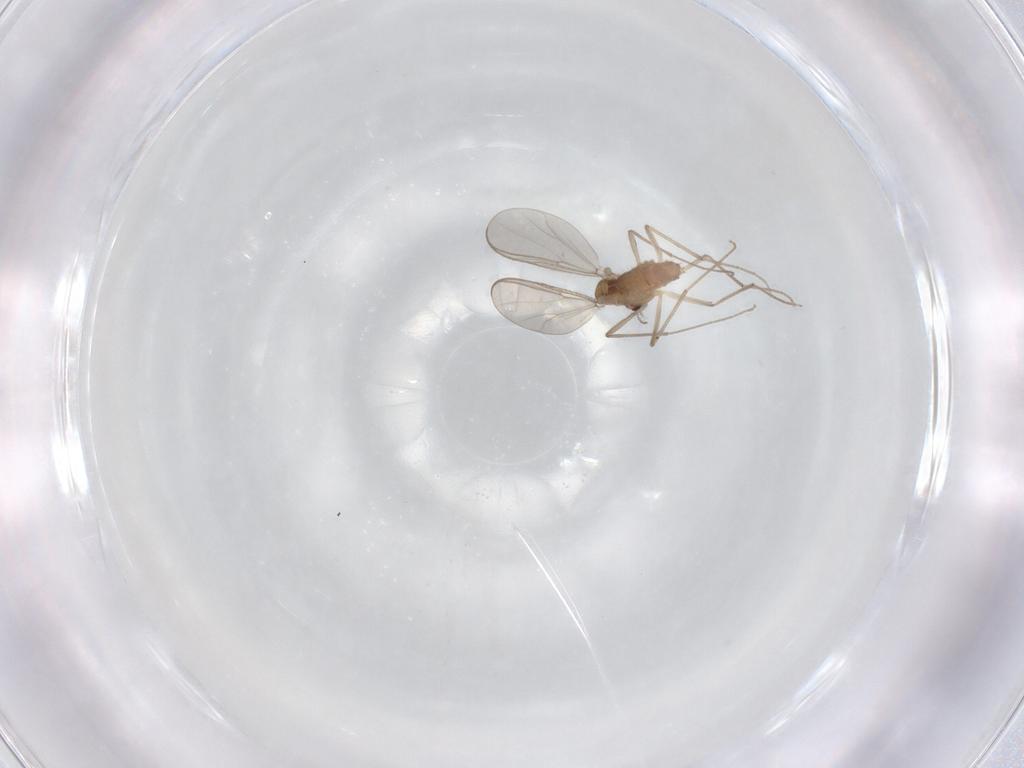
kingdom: Animalia
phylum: Arthropoda
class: Insecta
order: Diptera
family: Chironomidae
